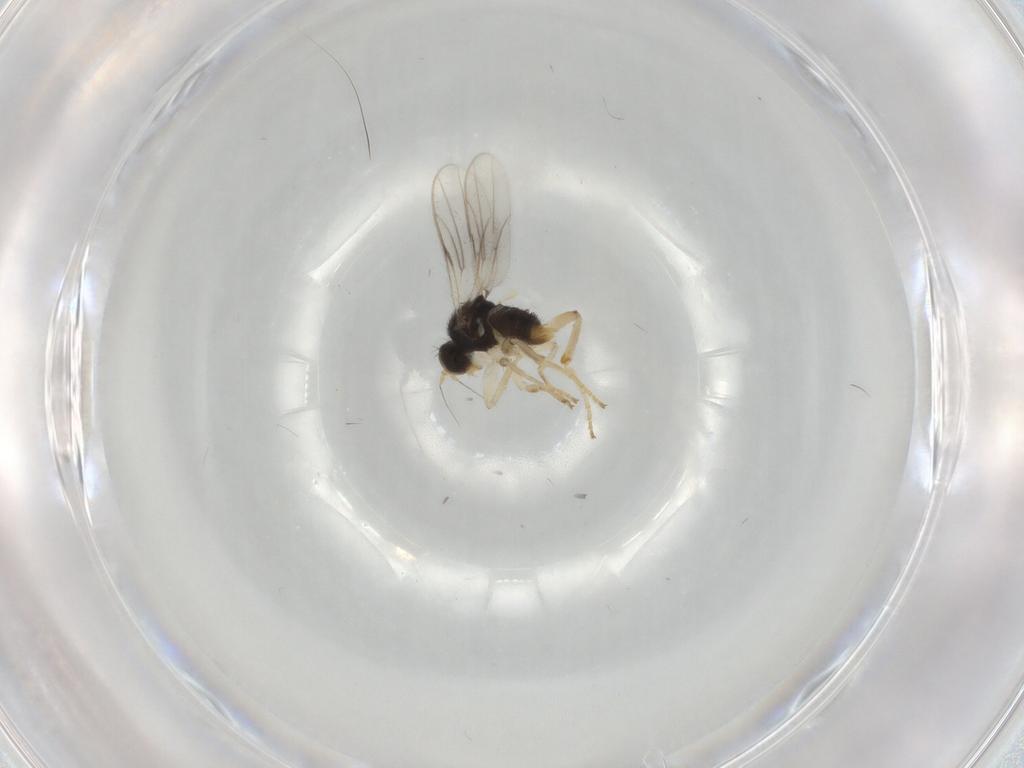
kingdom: Animalia
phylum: Arthropoda
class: Insecta
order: Diptera
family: Hybotidae
